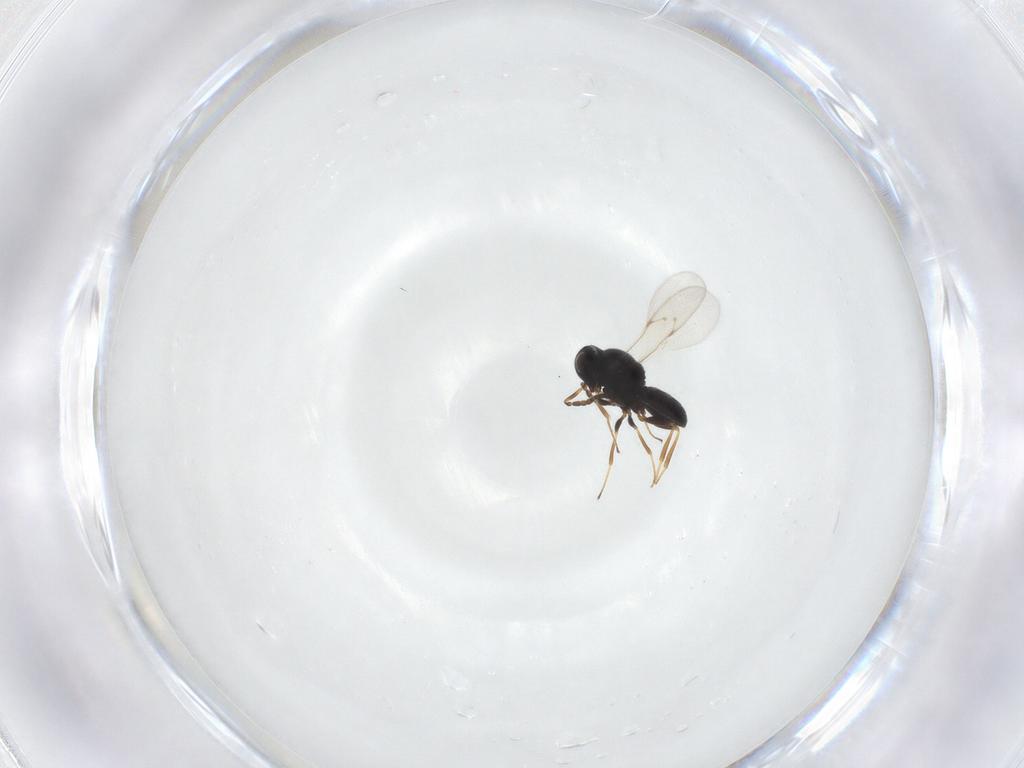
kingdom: Animalia
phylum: Arthropoda
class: Insecta
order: Hymenoptera
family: Scelionidae
